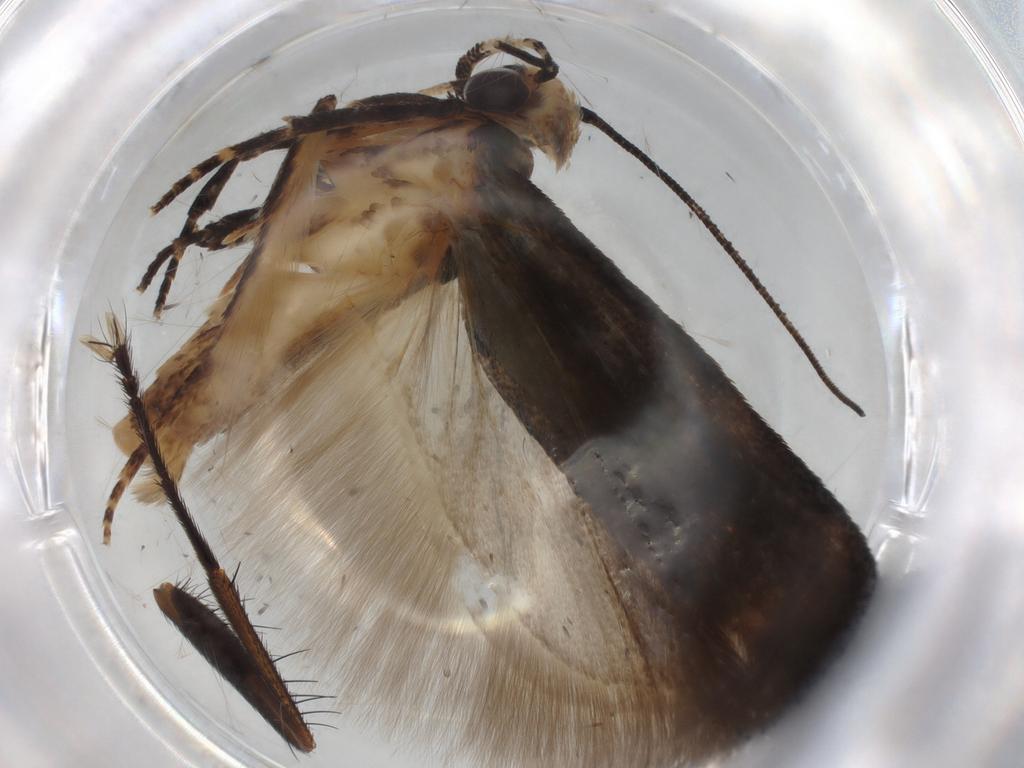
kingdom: Animalia
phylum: Arthropoda
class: Insecta
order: Lepidoptera
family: Gelechiidae
